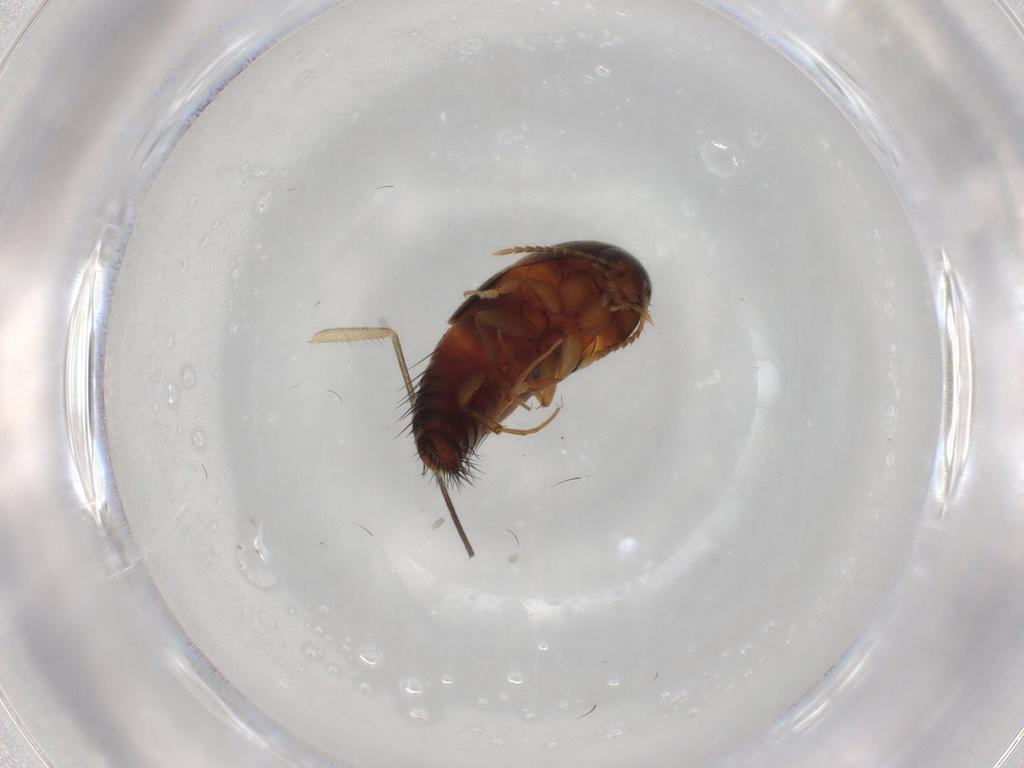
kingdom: Animalia
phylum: Arthropoda
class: Insecta
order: Coleoptera
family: Staphylinidae
